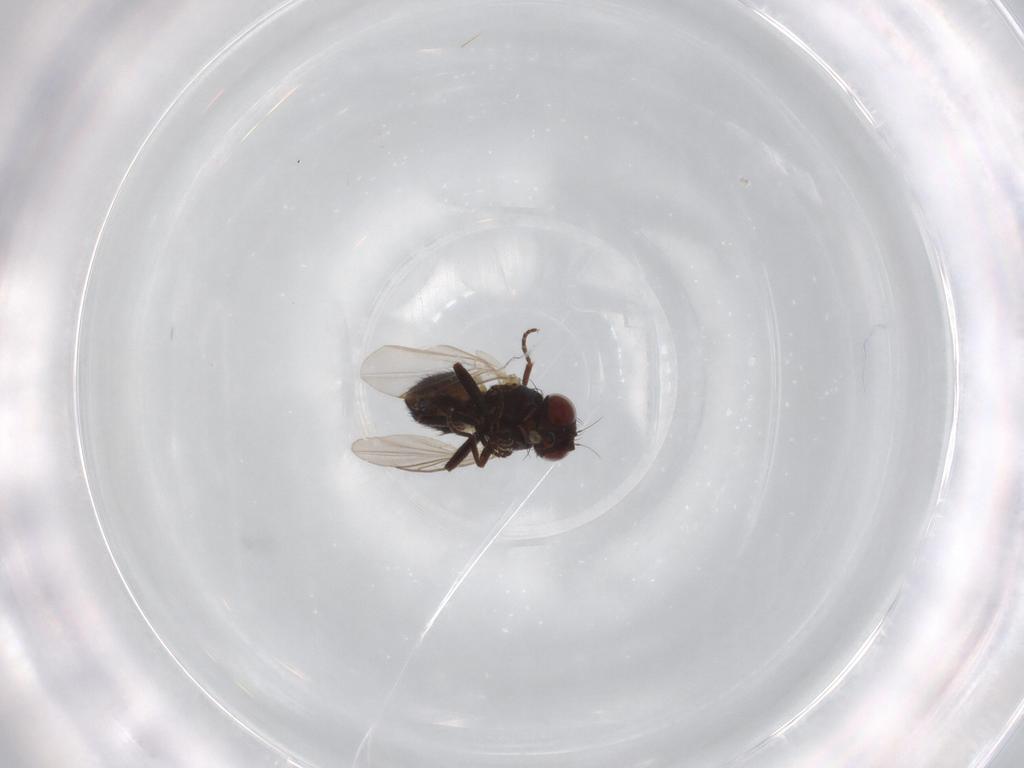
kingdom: Animalia
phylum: Arthropoda
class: Insecta
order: Diptera
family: Agromyzidae
